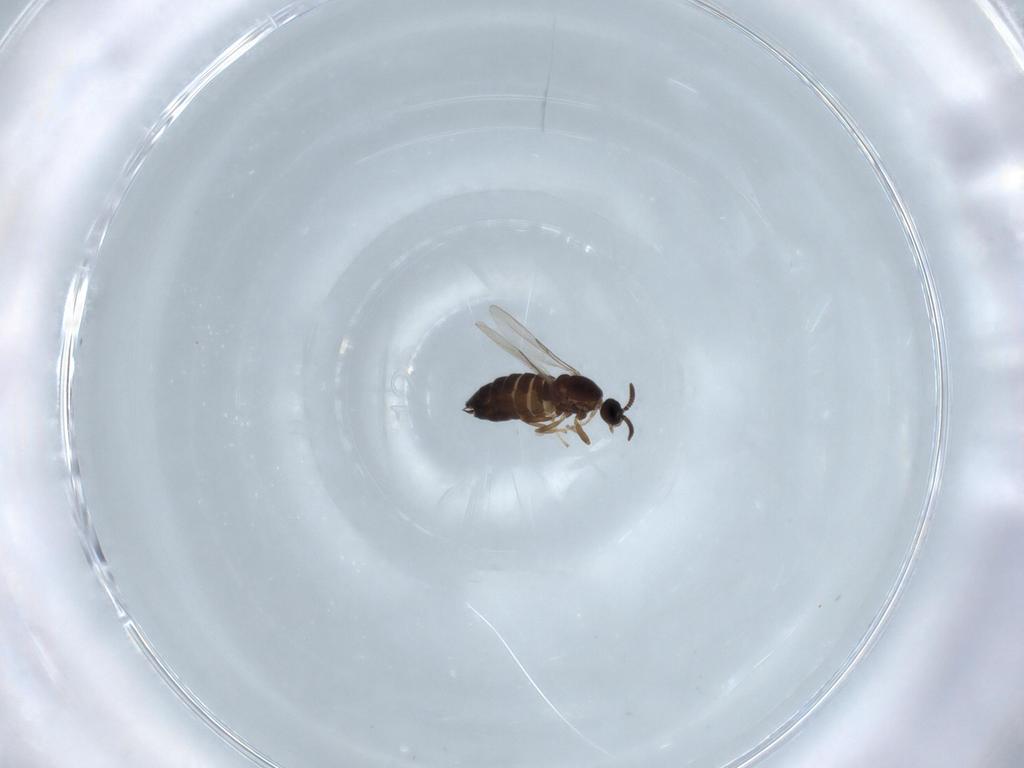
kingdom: Animalia
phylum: Arthropoda
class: Insecta
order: Diptera
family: Scatopsidae
